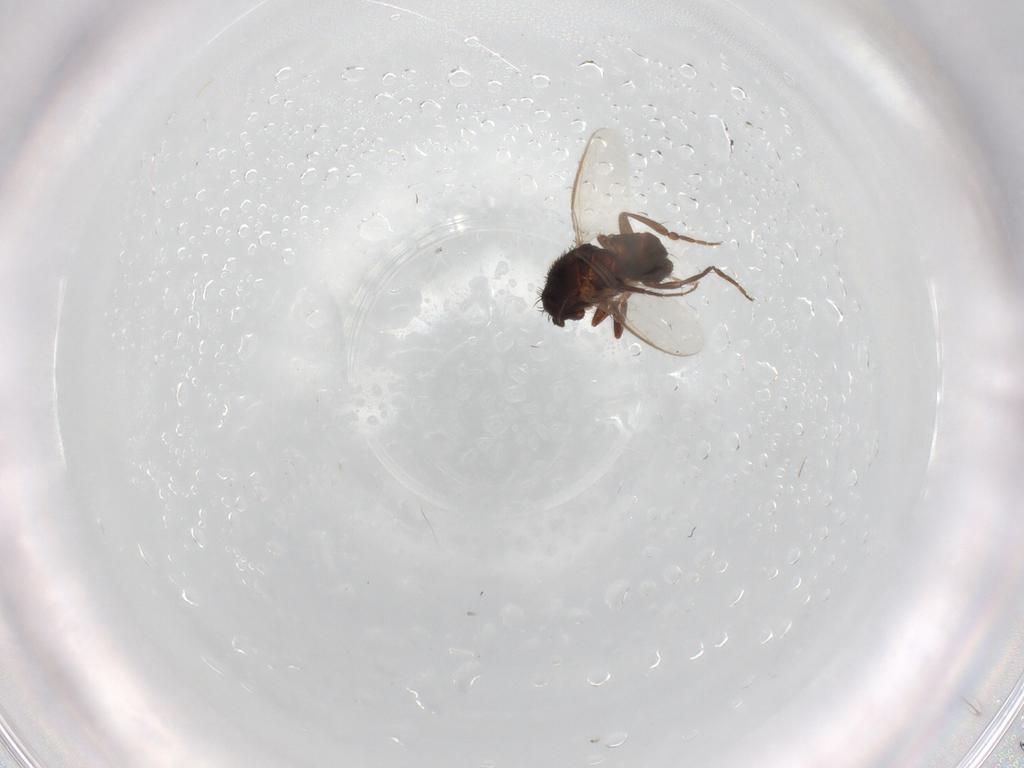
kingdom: Animalia
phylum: Arthropoda
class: Insecta
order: Diptera
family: Sphaeroceridae
